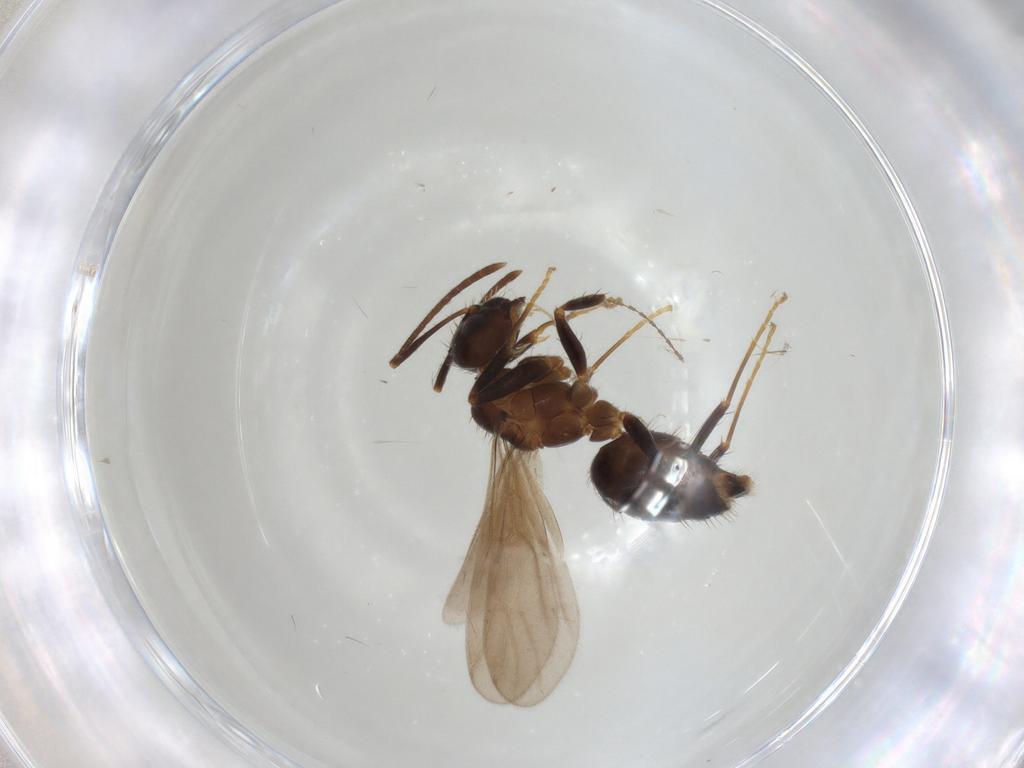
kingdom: Animalia
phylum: Arthropoda
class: Insecta
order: Hymenoptera
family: Formicidae
